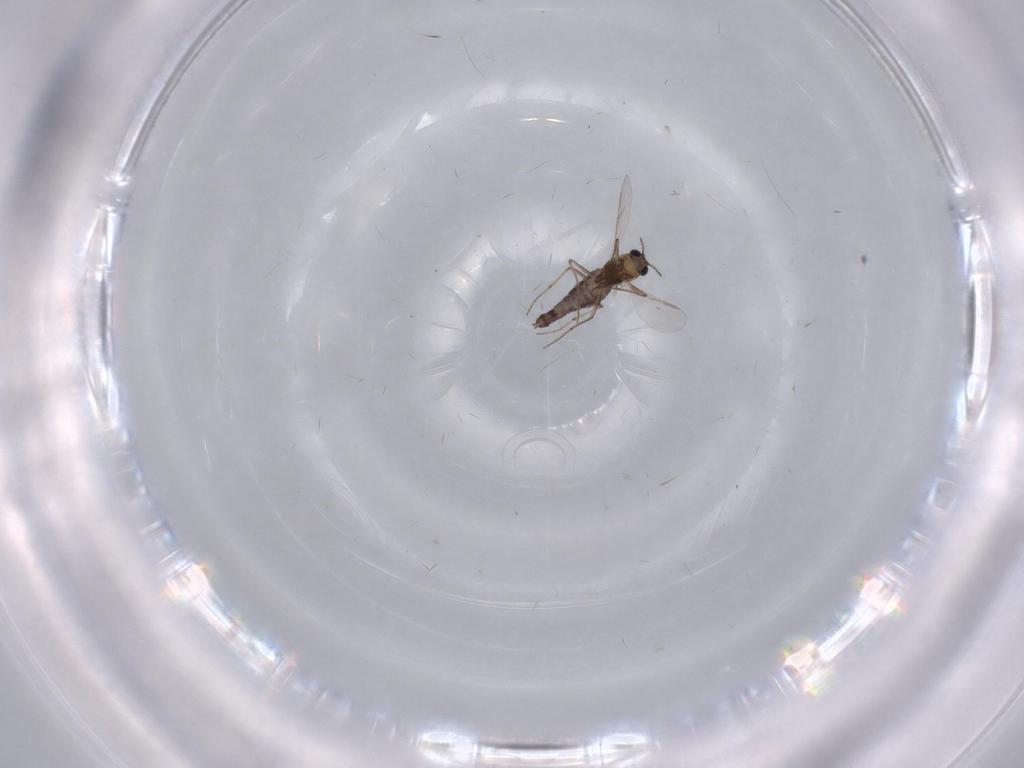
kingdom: Animalia
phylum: Arthropoda
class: Insecta
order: Diptera
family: Chironomidae
